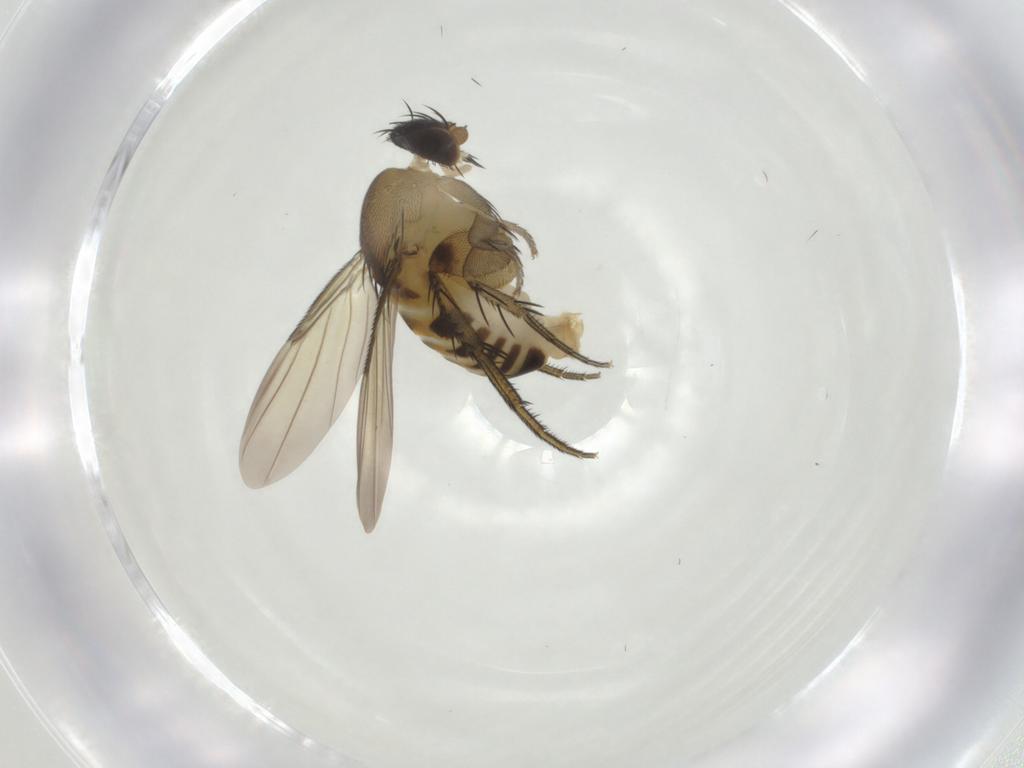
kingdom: Animalia
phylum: Arthropoda
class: Insecta
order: Diptera
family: Phoridae
